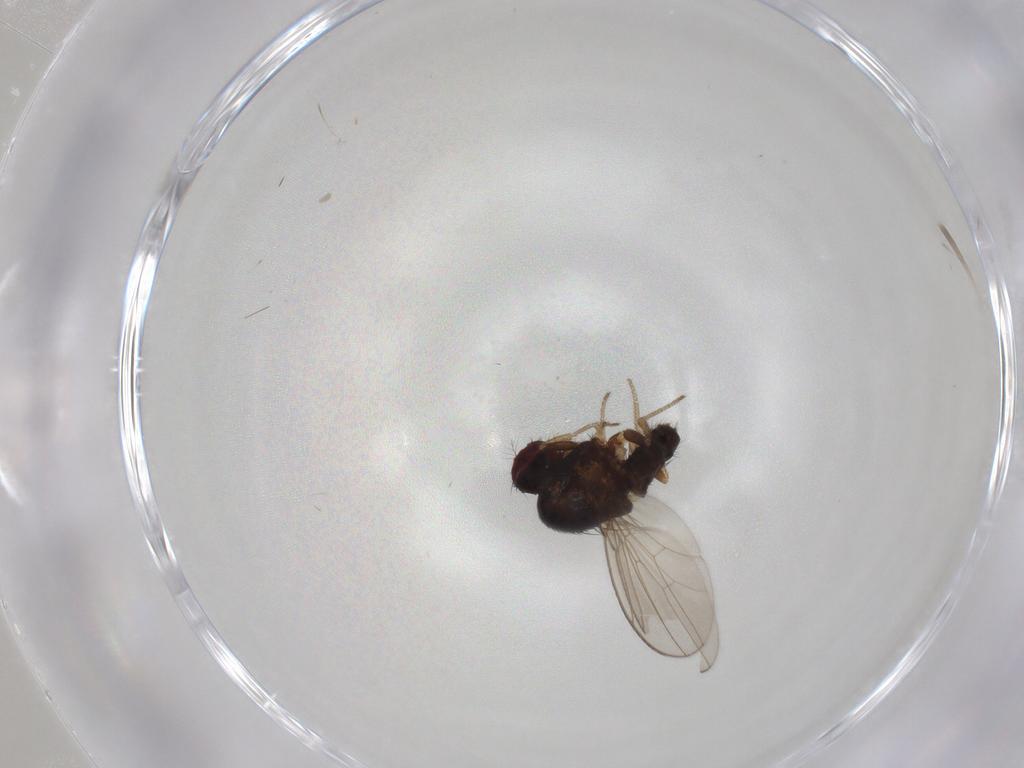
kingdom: Animalia
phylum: Arthropoda
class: Insecta
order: Diptera
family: Drosophilidae
